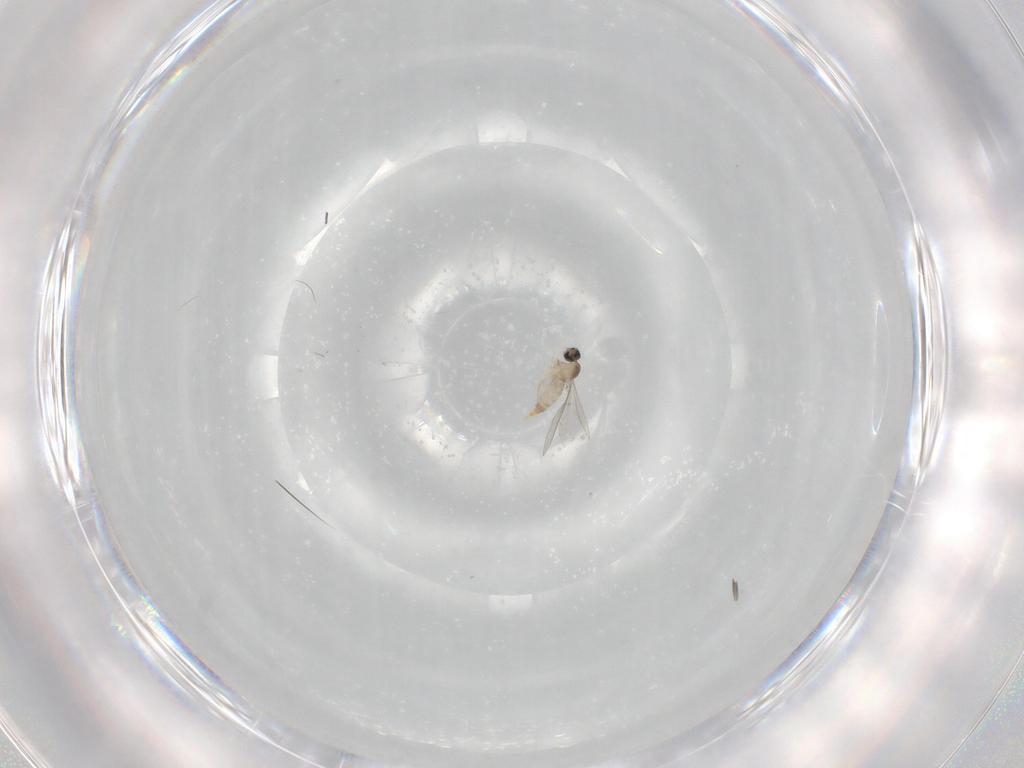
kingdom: Animalia
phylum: Arthropoda
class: Insecta
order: Diptera
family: Cecidomyiidae
